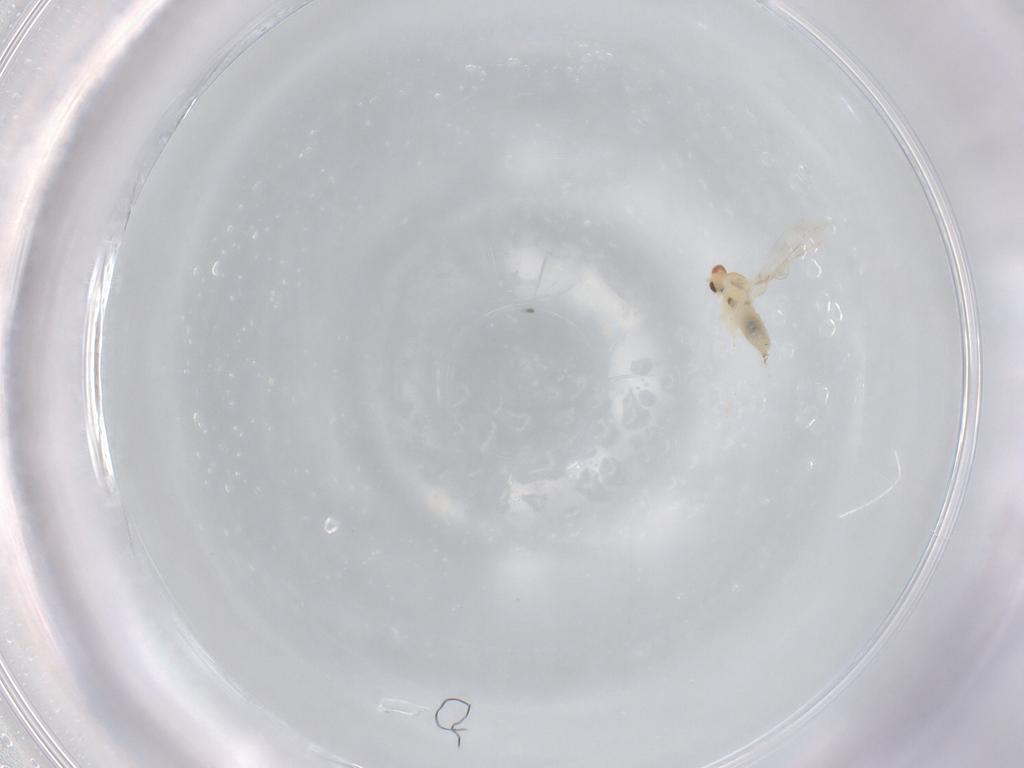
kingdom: Animalia
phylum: Arthropoda
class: Insecta
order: Diptera
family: Cecidomyiidae
